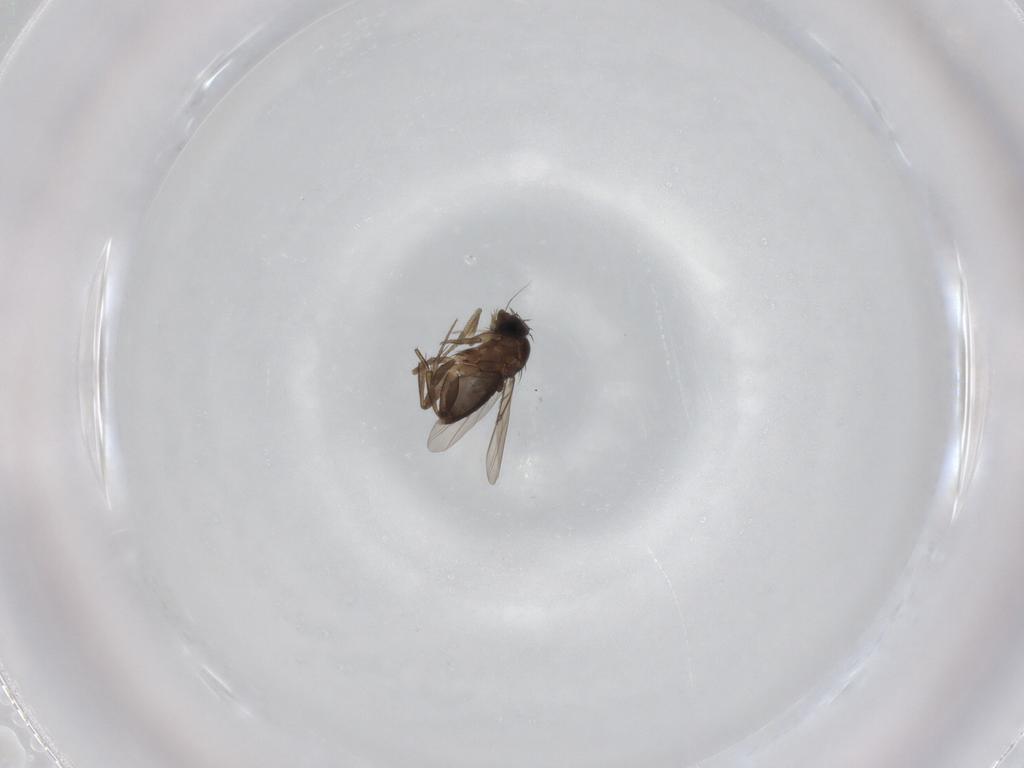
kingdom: Animalia
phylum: Arthropoda
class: Insecta
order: Diptera
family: Phoridae
